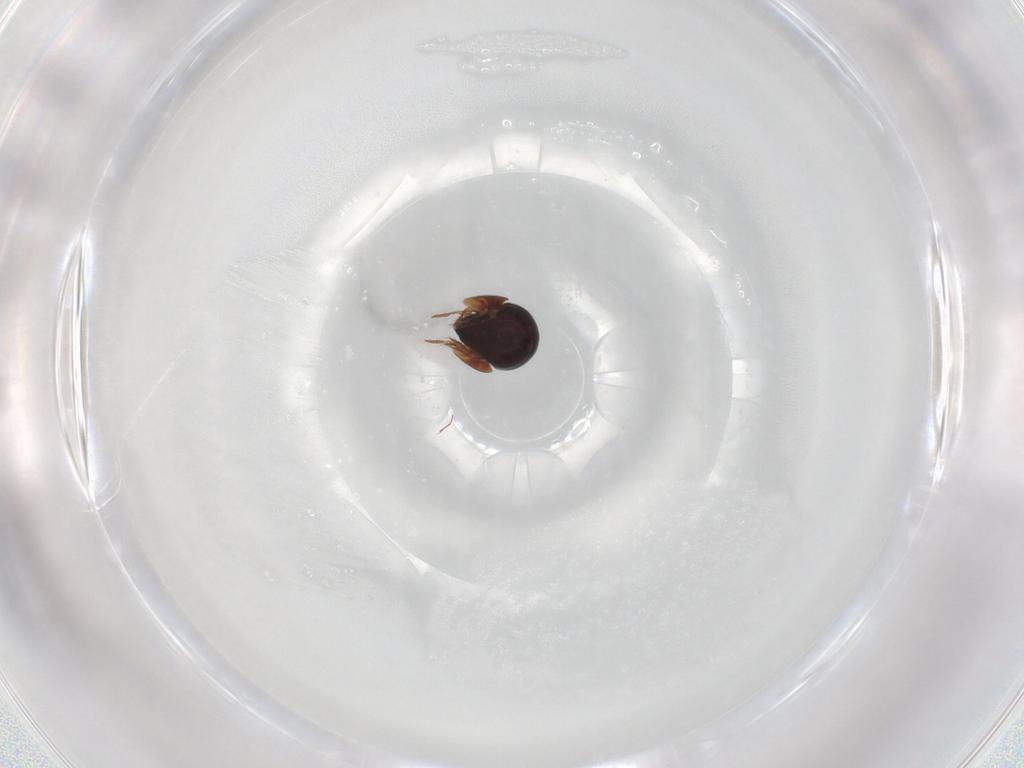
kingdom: Animalia
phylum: Arthropoda
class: Arachnida
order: Sarcoptiformes
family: Ceratozetidae
